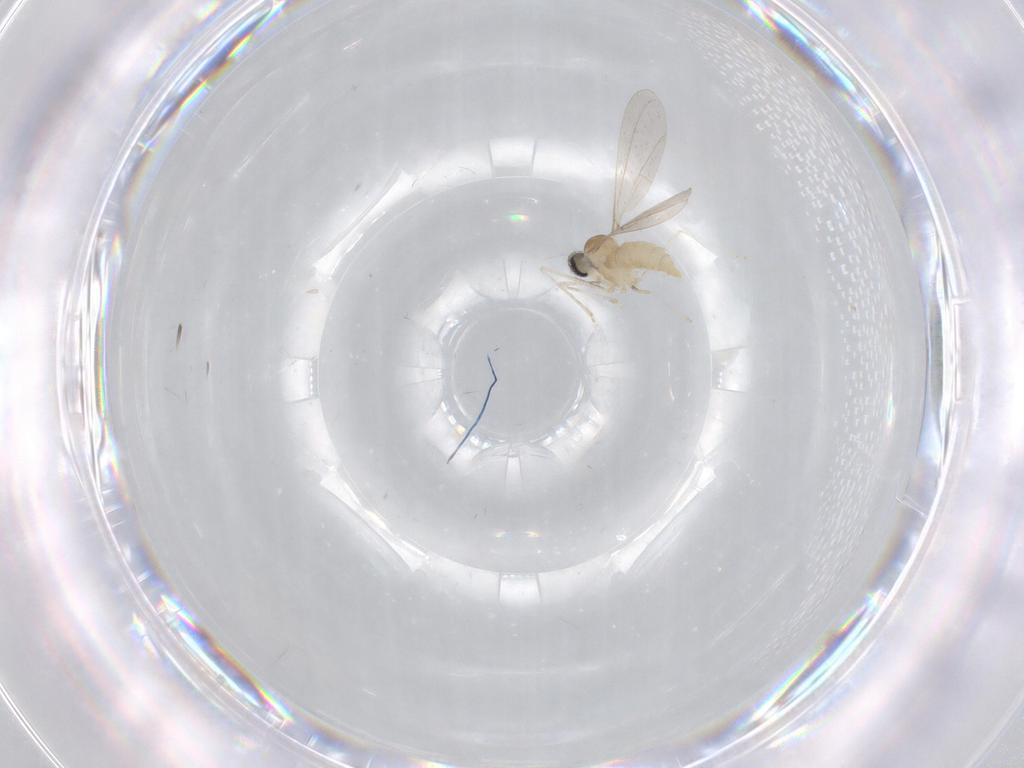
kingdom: Animalia
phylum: Arthropoda
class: Insecta
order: Diptera
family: Cecidomyiidae
